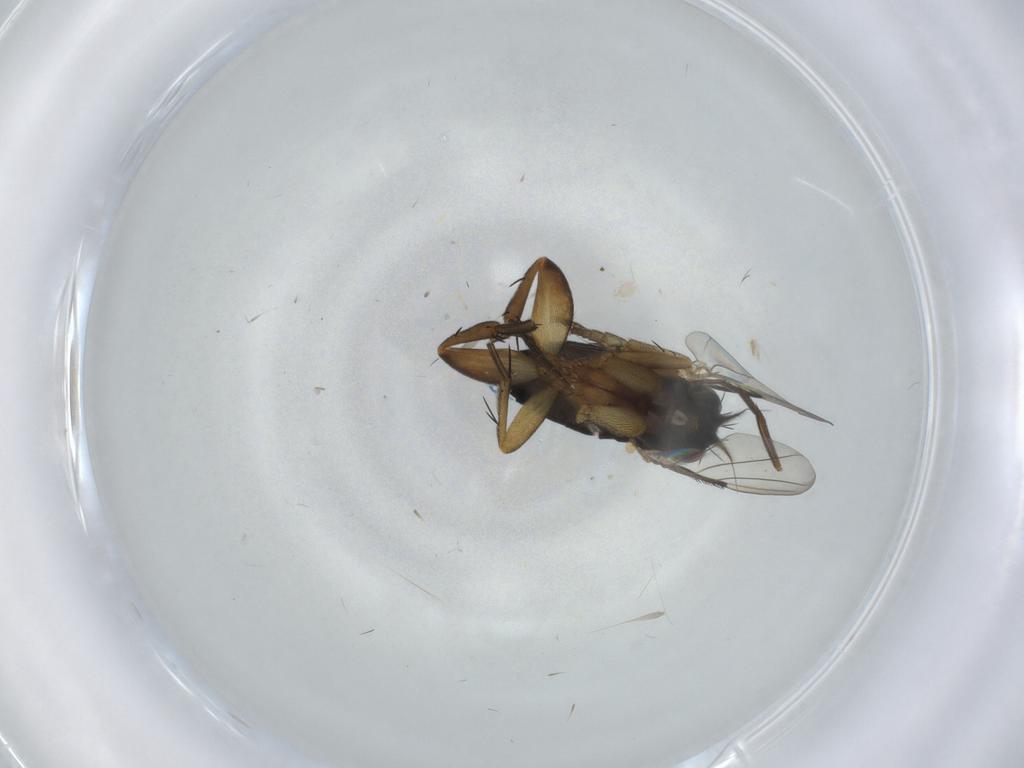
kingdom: Animalia
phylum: Arthropoda
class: Insecta
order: Diptera
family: Phoridae
